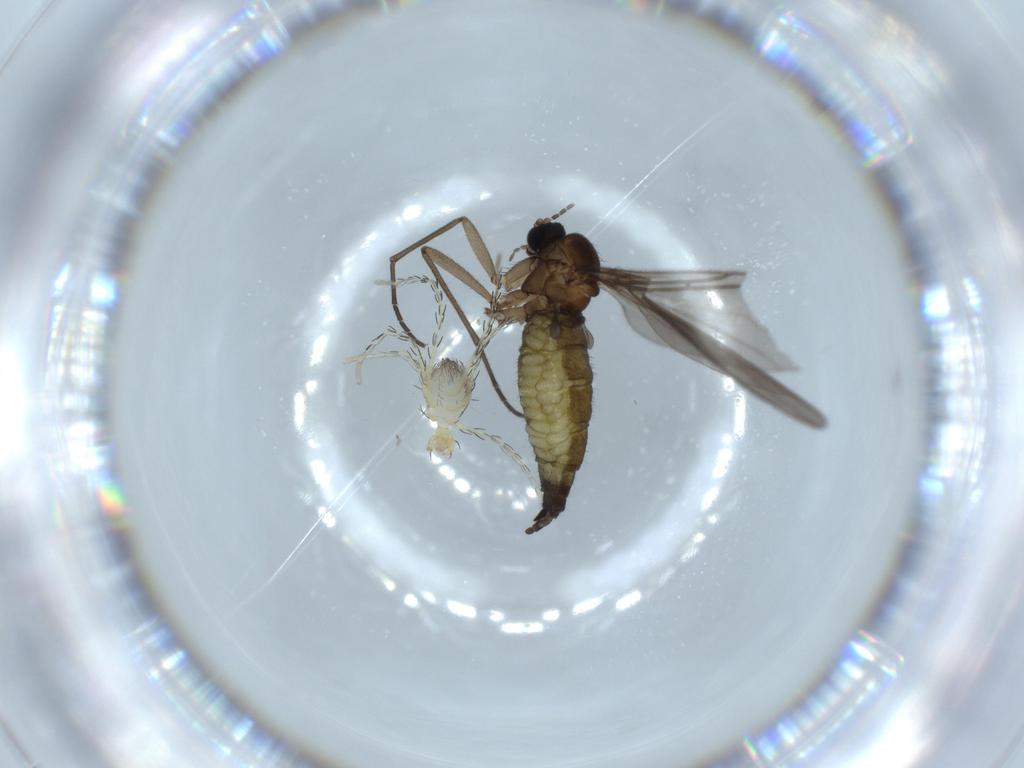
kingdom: Animalia
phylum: Arthropoda
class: Arachnida
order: Trombidiformes
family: Erythraeidae
